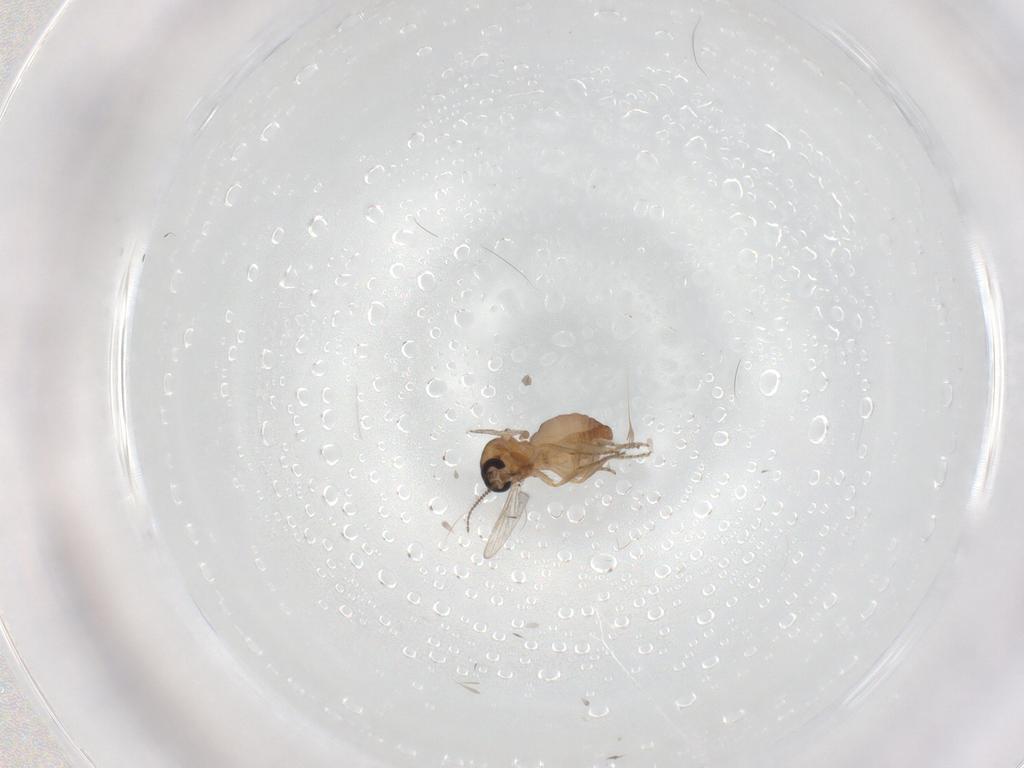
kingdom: Animalia
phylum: Arthropoda
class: Insecta
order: Diptera
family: Ceratopogonidae
